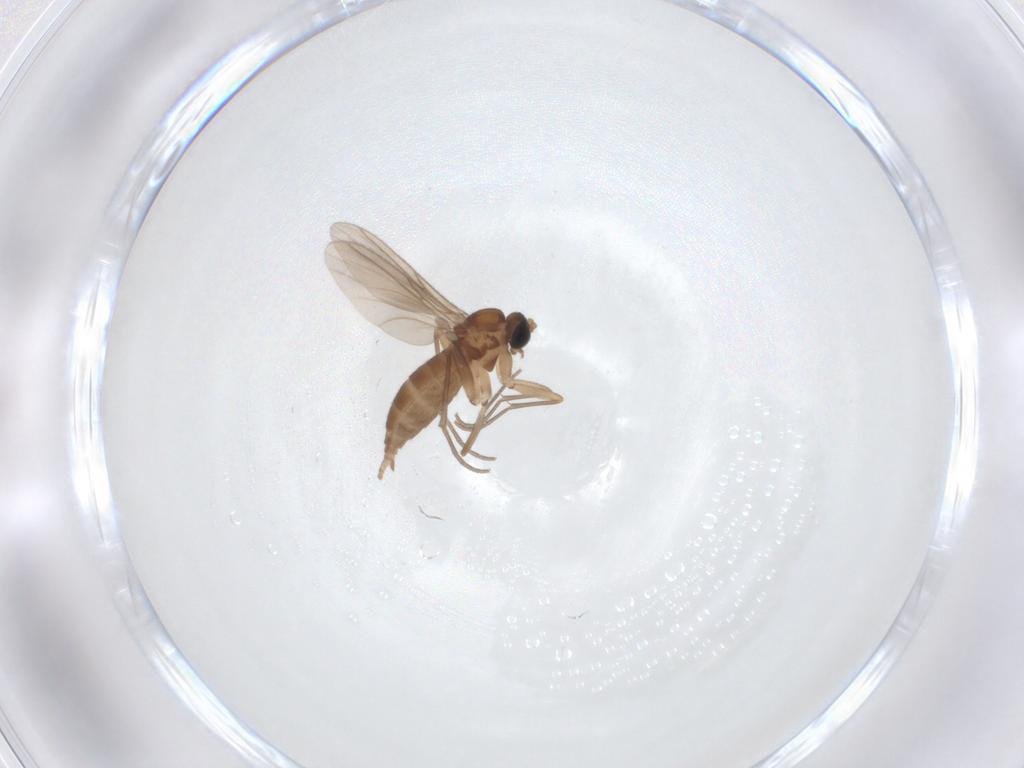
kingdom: Animalia
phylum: Arthropoda
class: Insecta
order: Diptera
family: Sciaridae
